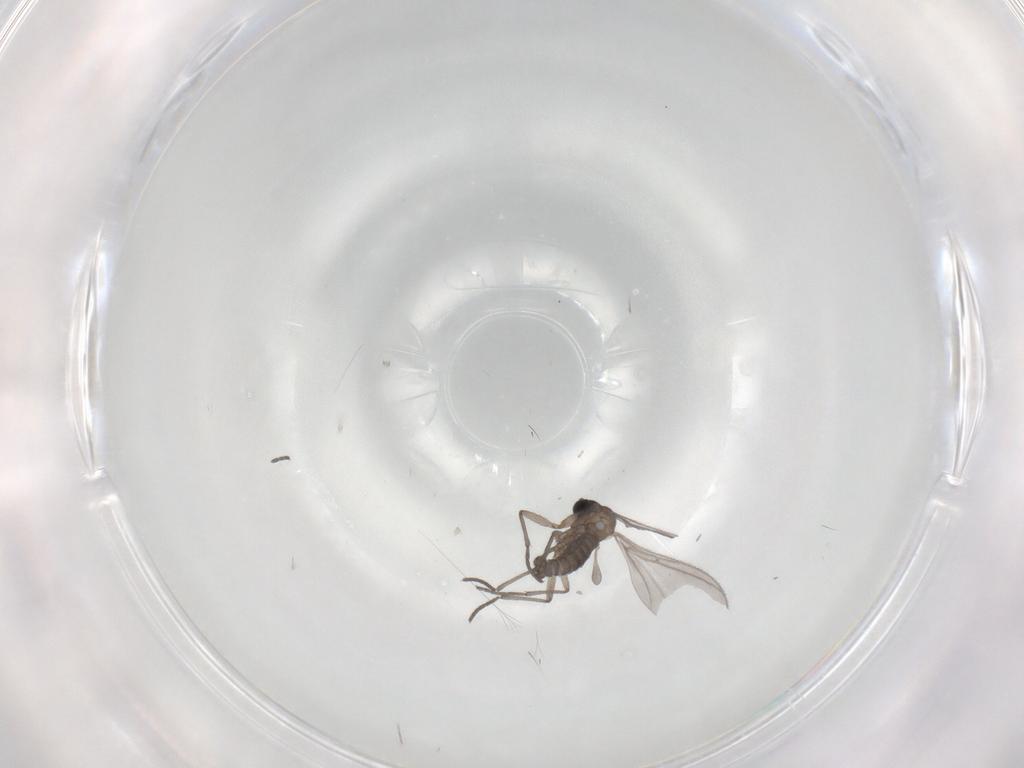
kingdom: Animalia
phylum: Arthropoda
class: Insecta
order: Diptera
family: Sciaridae
